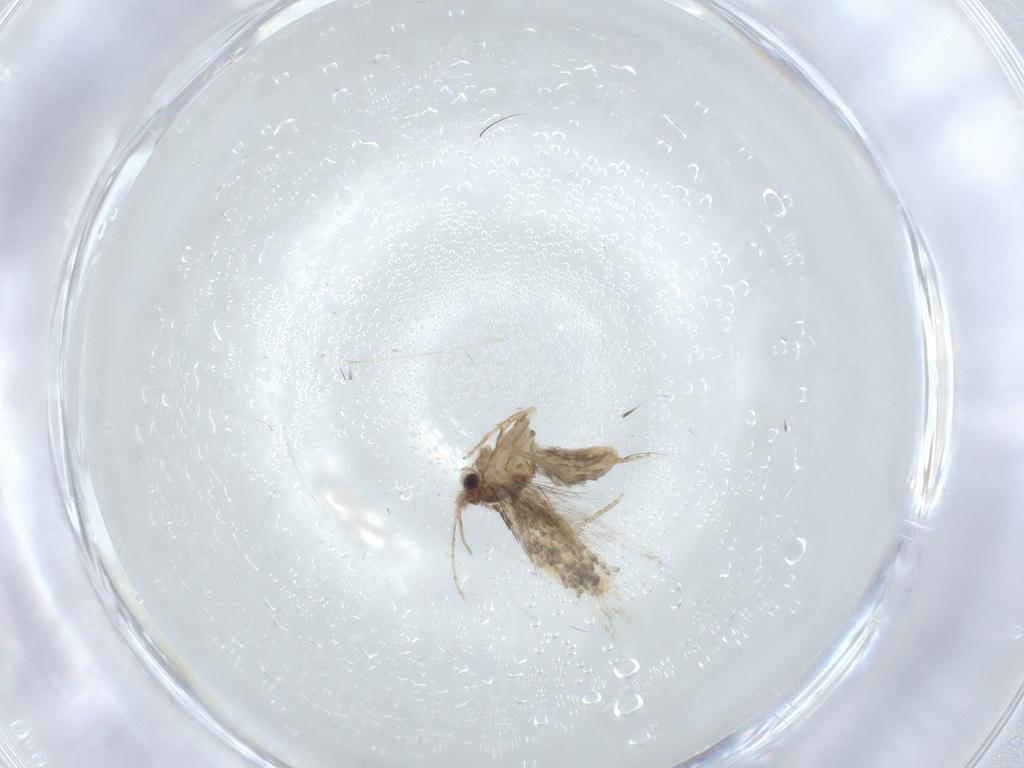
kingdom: Animalia
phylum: Arthropoda
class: Insecta
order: Lepidoptera
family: Nepticulidae
